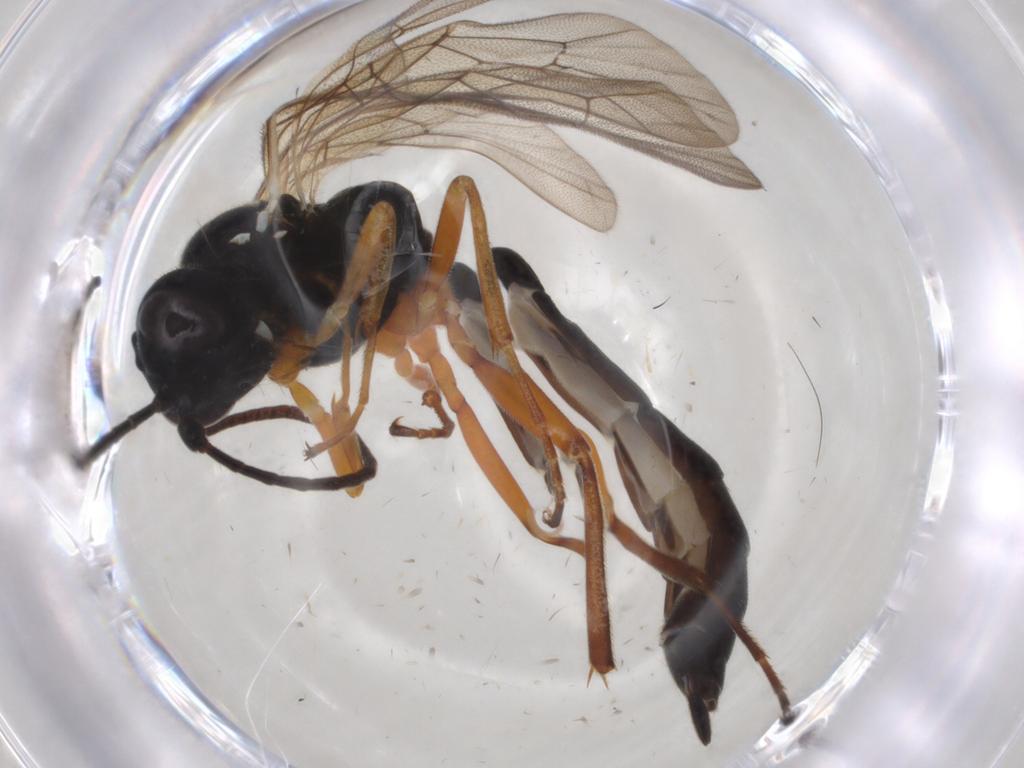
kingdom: Animalia
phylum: Arthropoda
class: Insecta
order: Hymenoptera
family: Ichneumonidae
